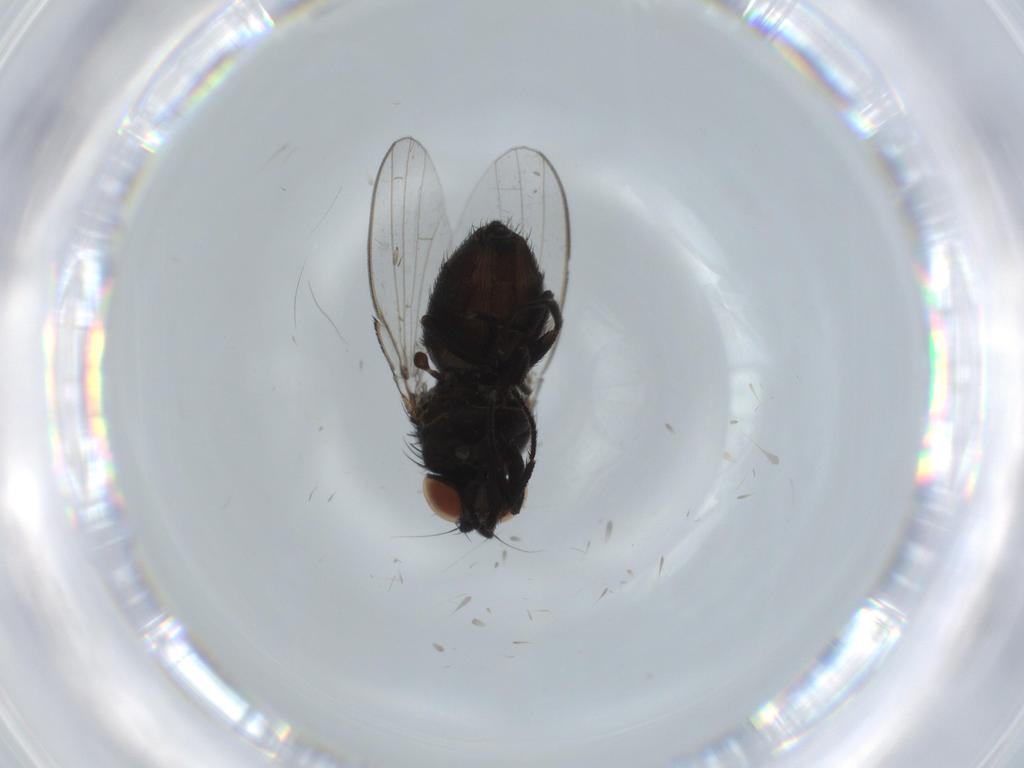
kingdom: Animalia
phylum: Arthropoda
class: Insecta
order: Diptera
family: Milichiidae
